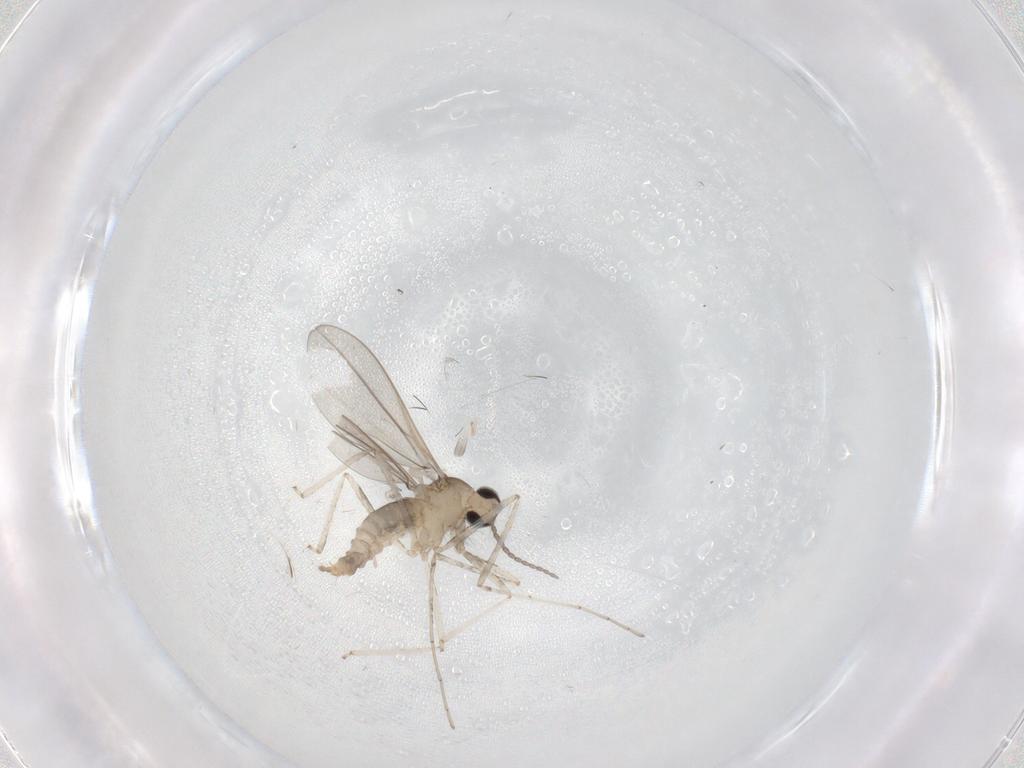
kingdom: Animalia
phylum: Arthropoda
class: Insecta
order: Diptera
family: Cecidomyiidae
